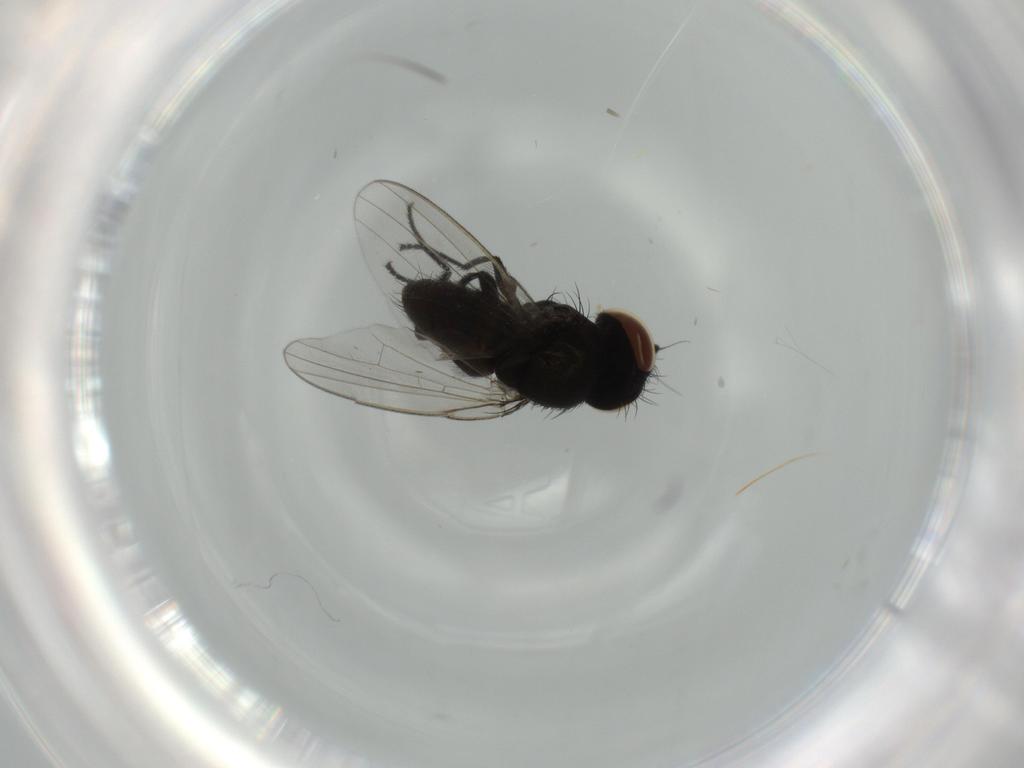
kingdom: Animalia
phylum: Arthropoda
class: Insecta
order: Diptera
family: Milichiidae
